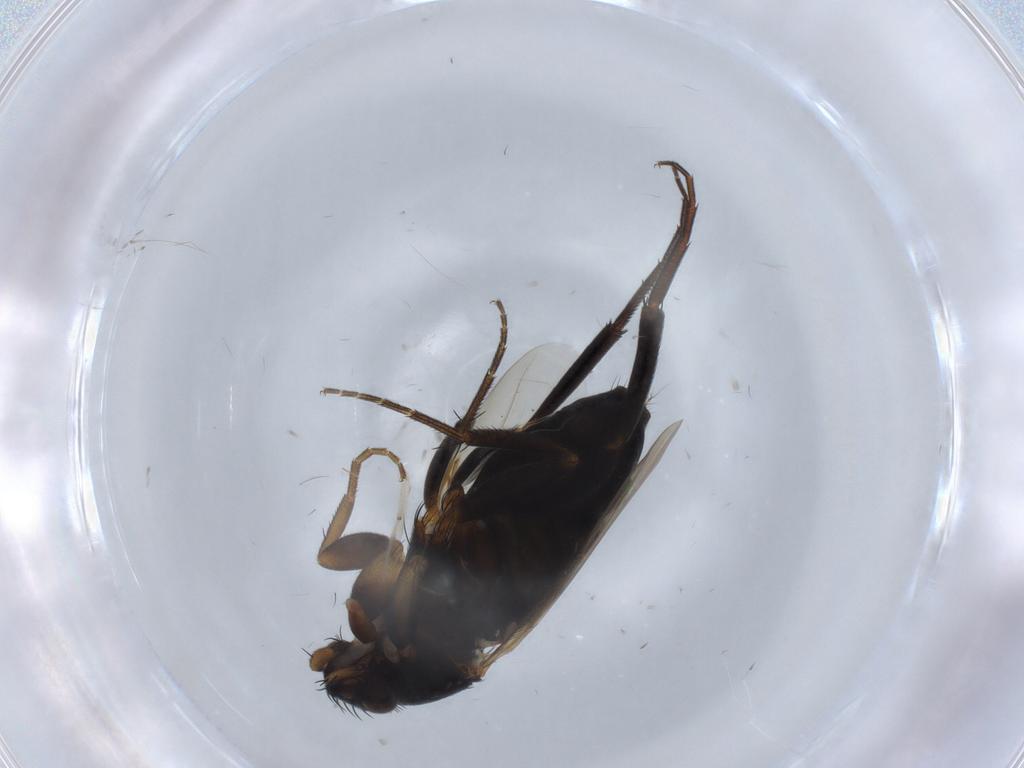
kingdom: Animalia
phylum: Arthropoda
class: Insecta
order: Diptera
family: Phoridae
